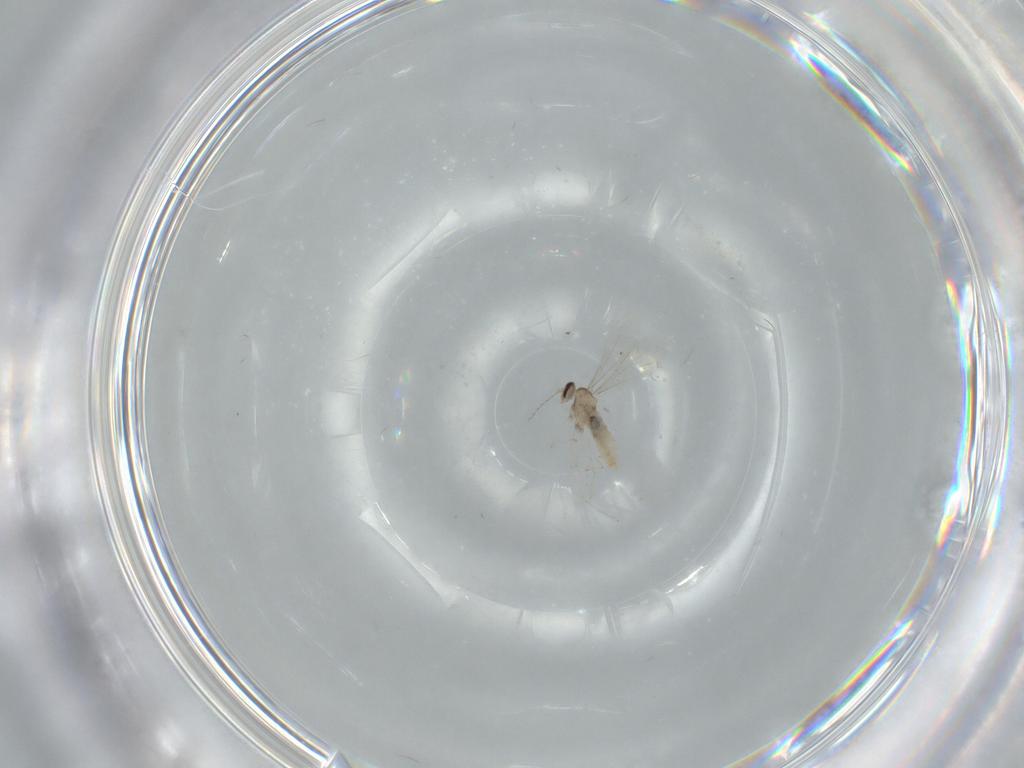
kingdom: Animalia
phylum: Arthropoda
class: Insecta
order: Diptera
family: Cecidomyiidae
